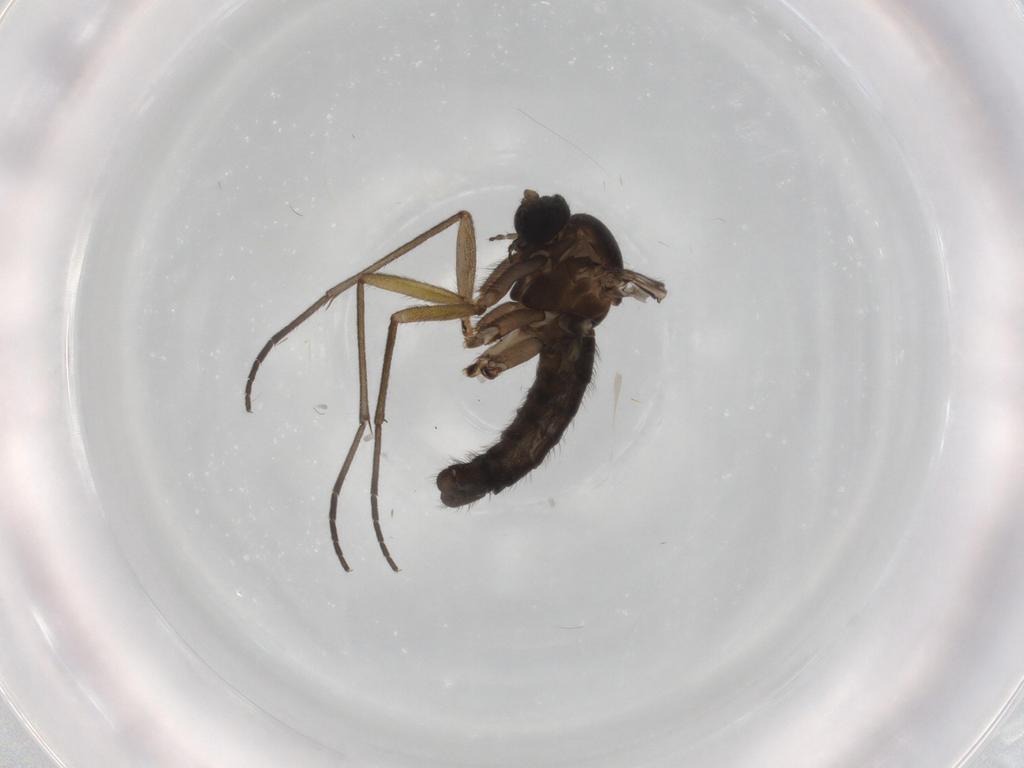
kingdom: Animalia
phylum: Arthropoda
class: Insecta
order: Diptera
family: Sciaridae
